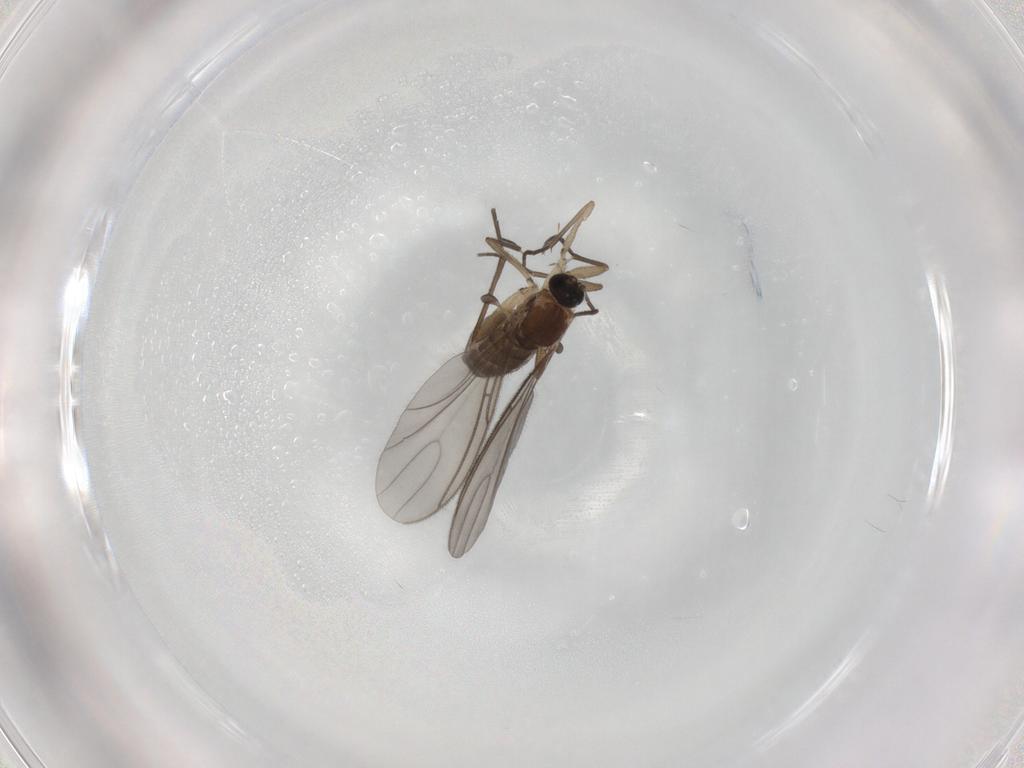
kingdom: Animalia
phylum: Arthropoda
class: Insecta
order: Diptera
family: Sciaridae
